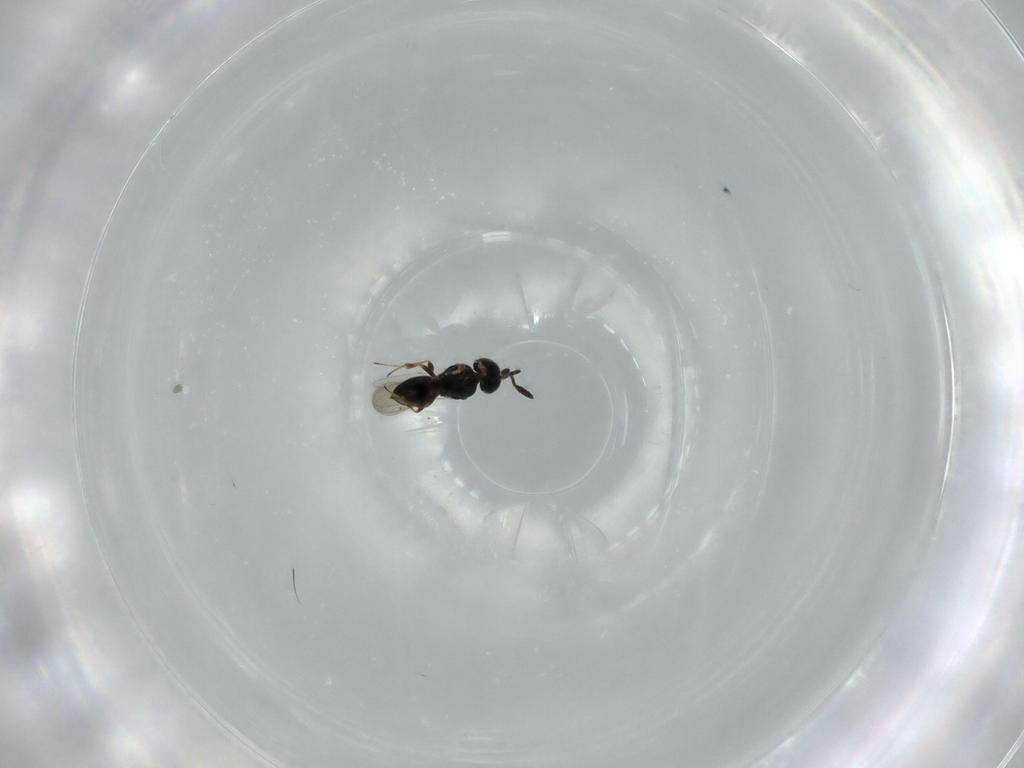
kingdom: Animalia
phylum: Arthropoda
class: Insecta
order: Hymenoptera
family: Scelionidae
